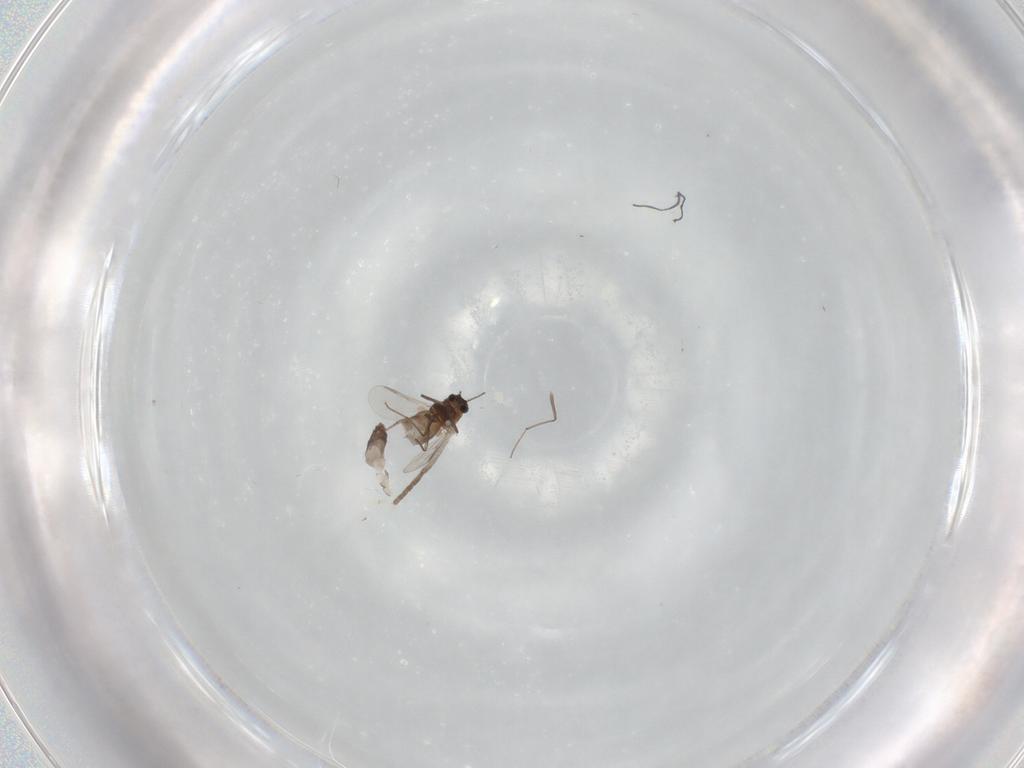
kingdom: Animalia
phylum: Arthropoda
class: Insecta
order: Diptera
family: Chironomidae
